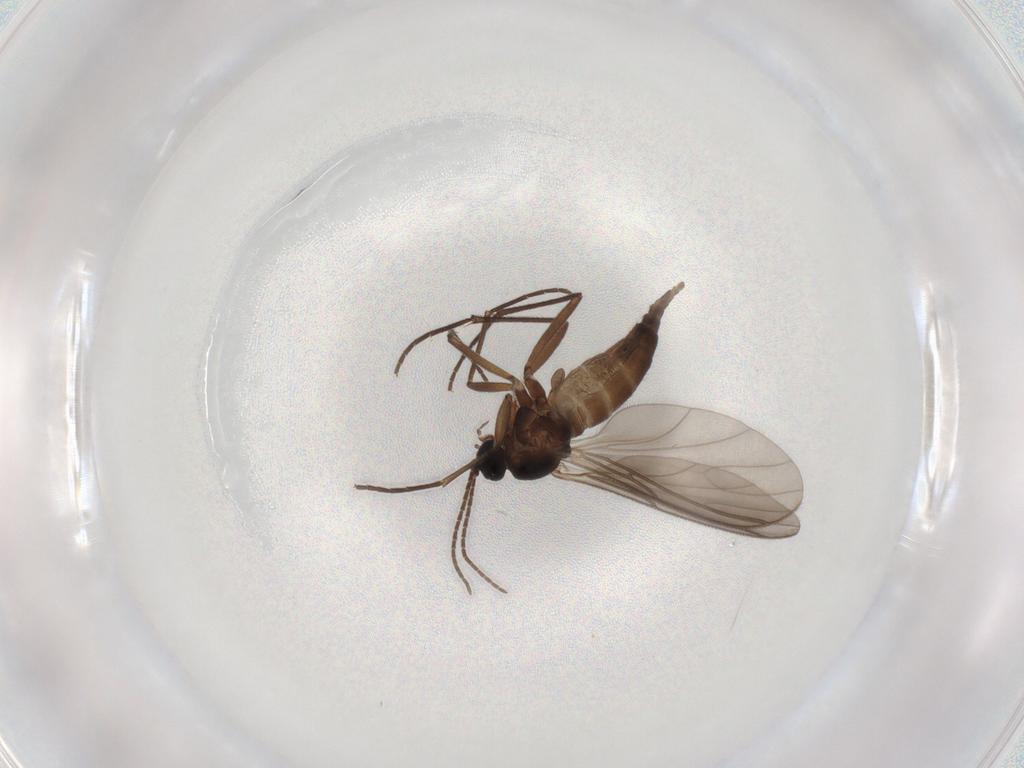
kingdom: Animalia
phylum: Arthropoda
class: Insecta
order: Diptera
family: Sciaridae
